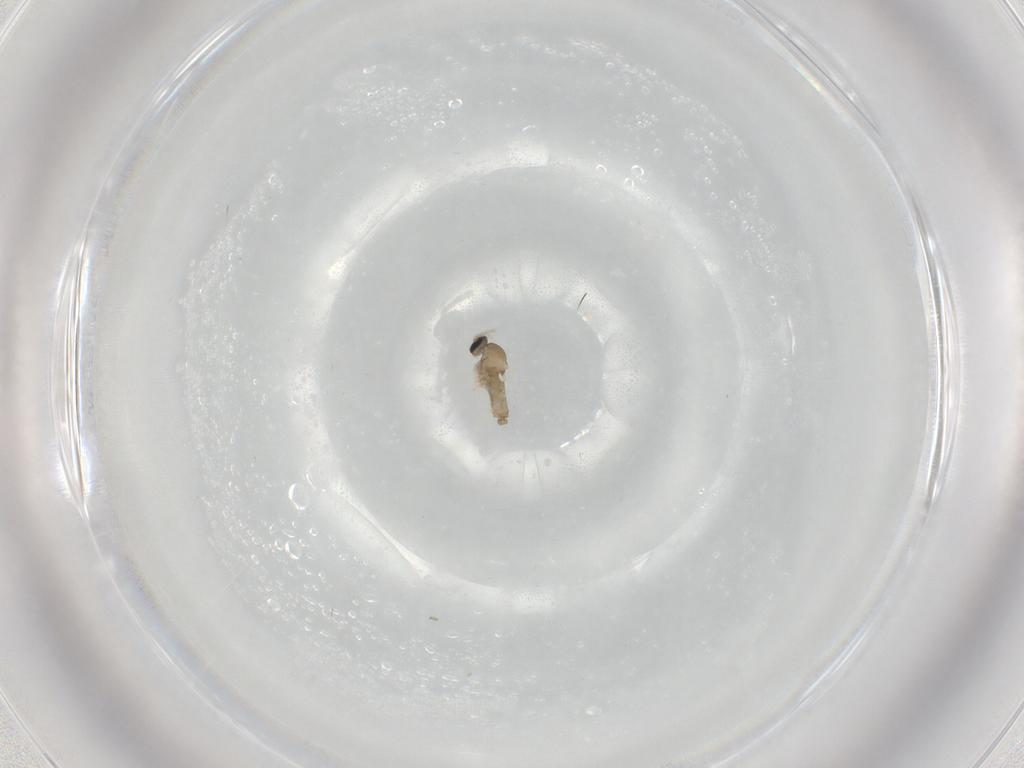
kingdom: Animalia
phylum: Arthropoda
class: Insecta
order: Diptera
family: Cecidomyiidae
